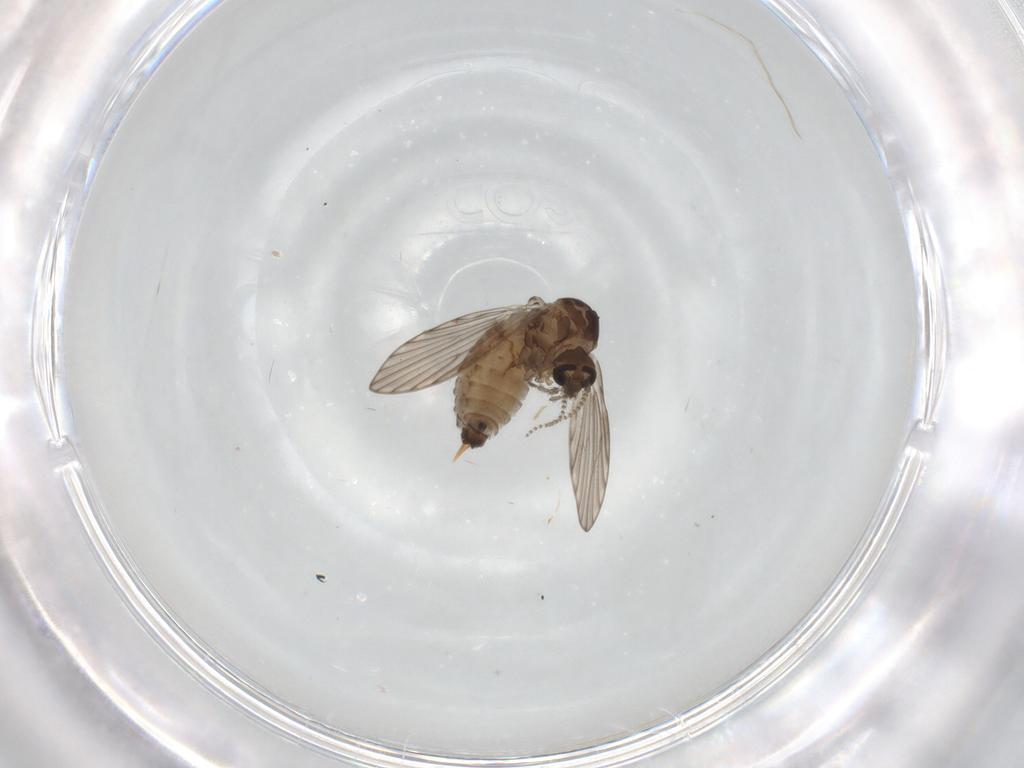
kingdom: Animalia
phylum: Arthropoda
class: Insecta
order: Diptera
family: Psychodidae
